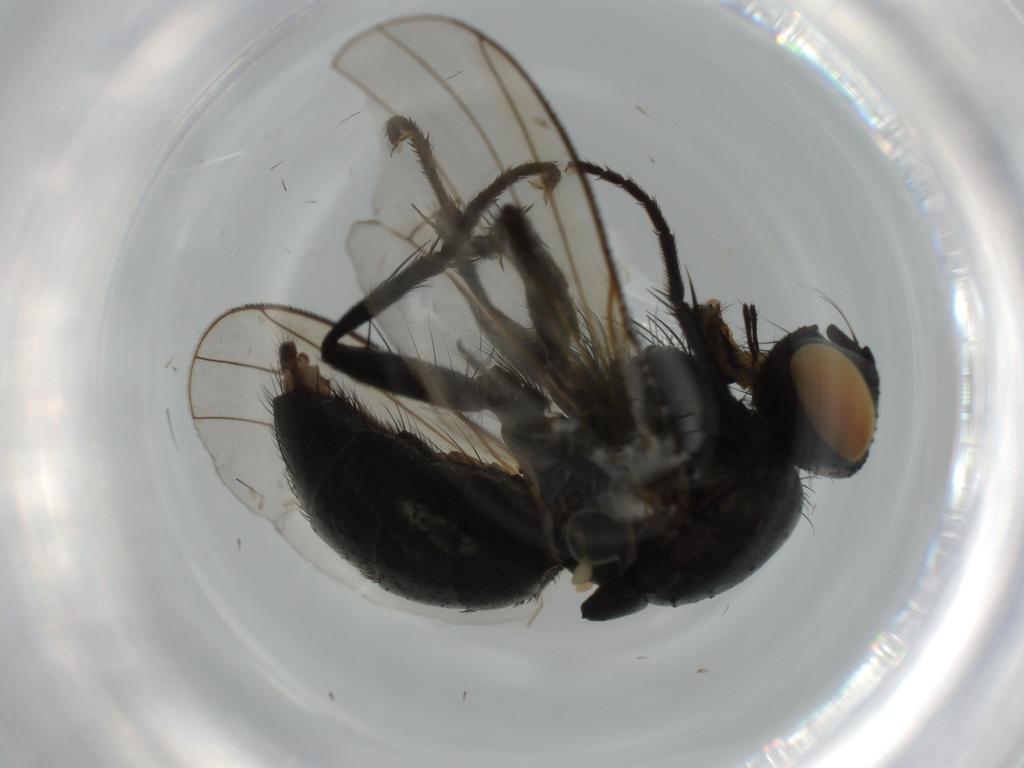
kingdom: Animalia
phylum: Arthropoda
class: Insecta
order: Diptera
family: Muscidae
